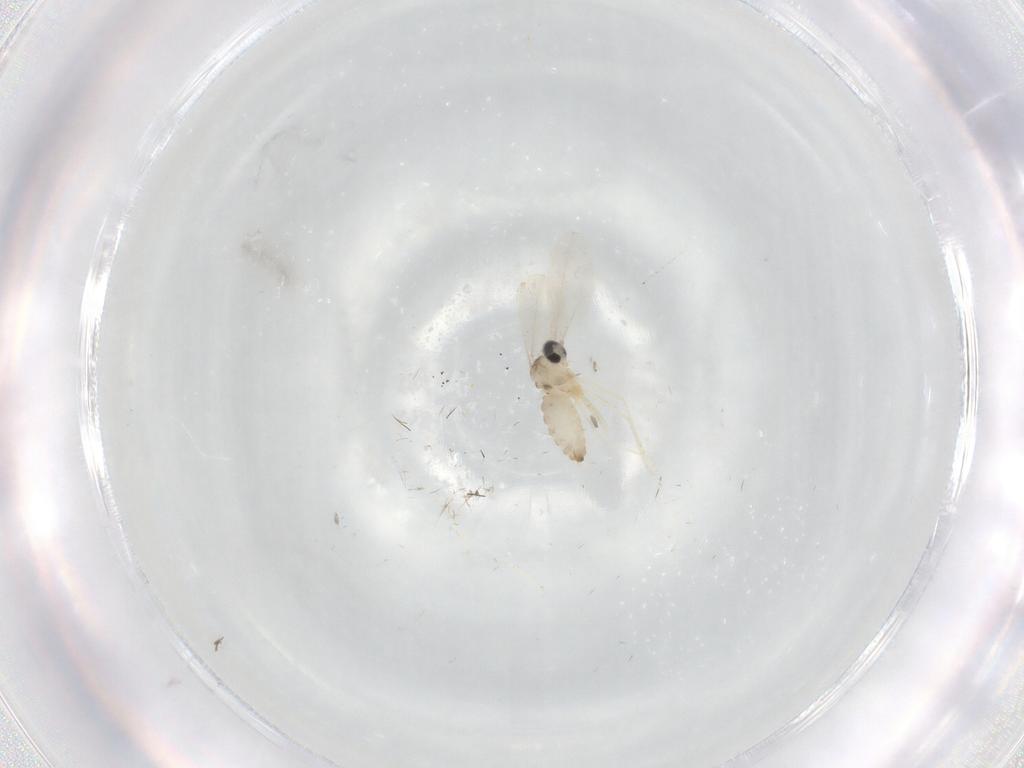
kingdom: Animalia
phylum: Arthropoda
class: Insecta
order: Diptera
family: Cecidomyiidae
